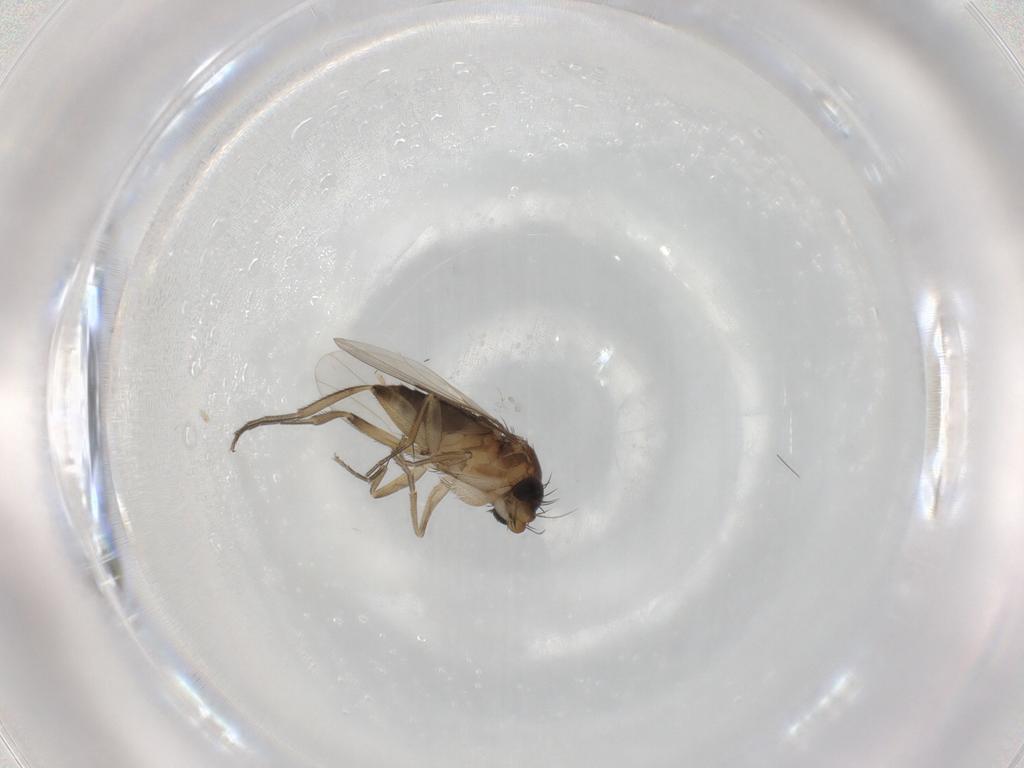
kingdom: Animalia
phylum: Arthropoda
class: Insecta
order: Diptera
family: Phoridae
